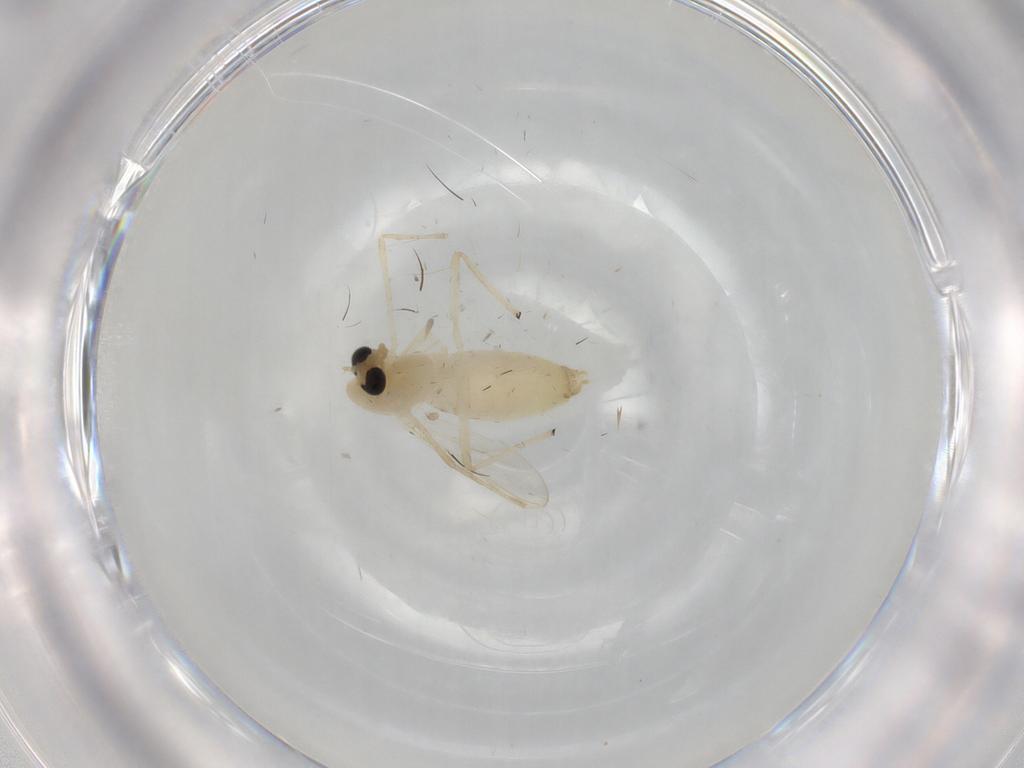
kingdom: Animalia
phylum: Arthropoda
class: Insecta
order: Diptera
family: Chironomidae
